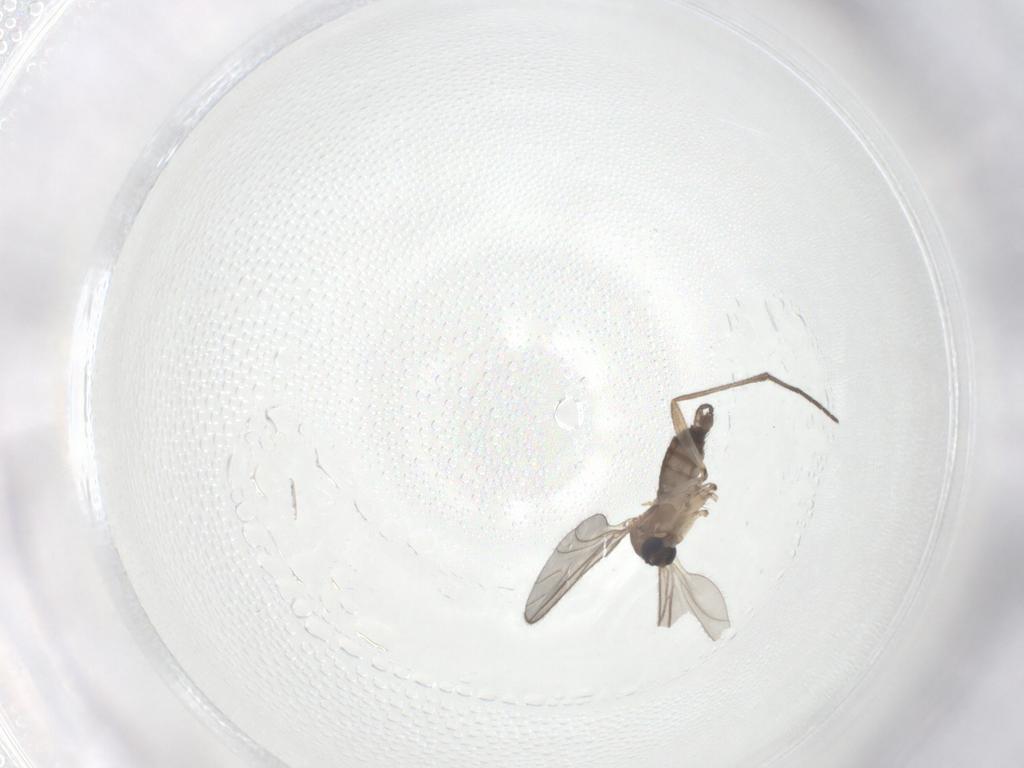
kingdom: Animalia
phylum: Arthropoda
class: Insecta
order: Diptera
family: Sciaridae
